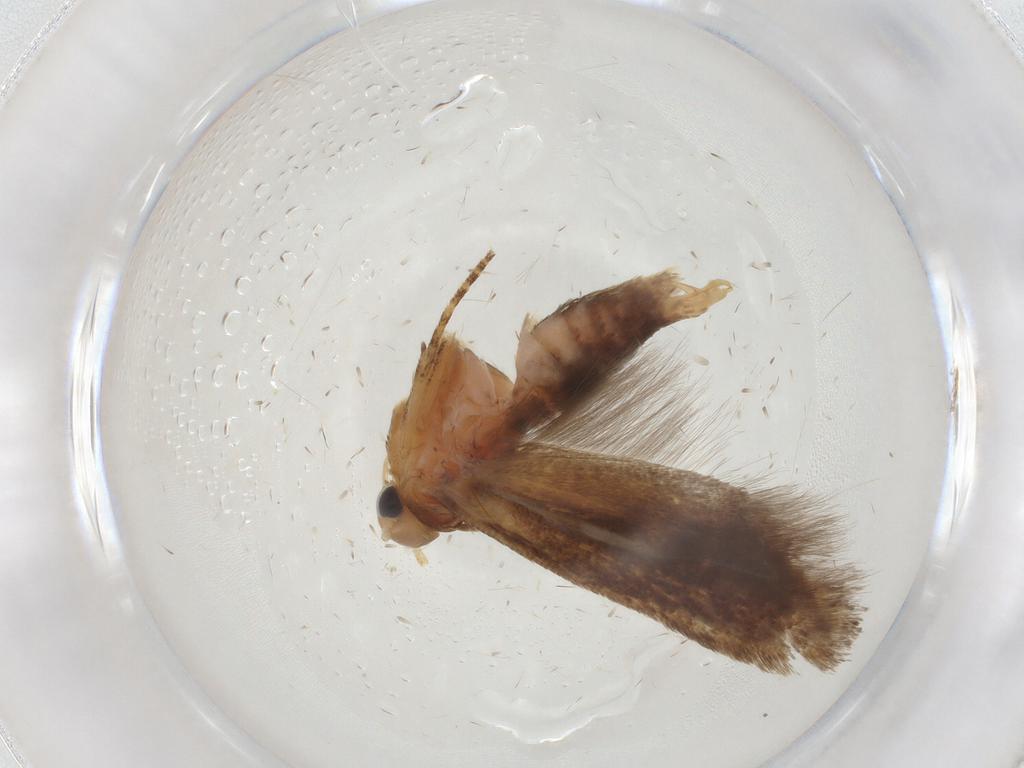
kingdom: Animalia
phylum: Arthropoda
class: Insecta
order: Lepidoptera
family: Gelechiidae
